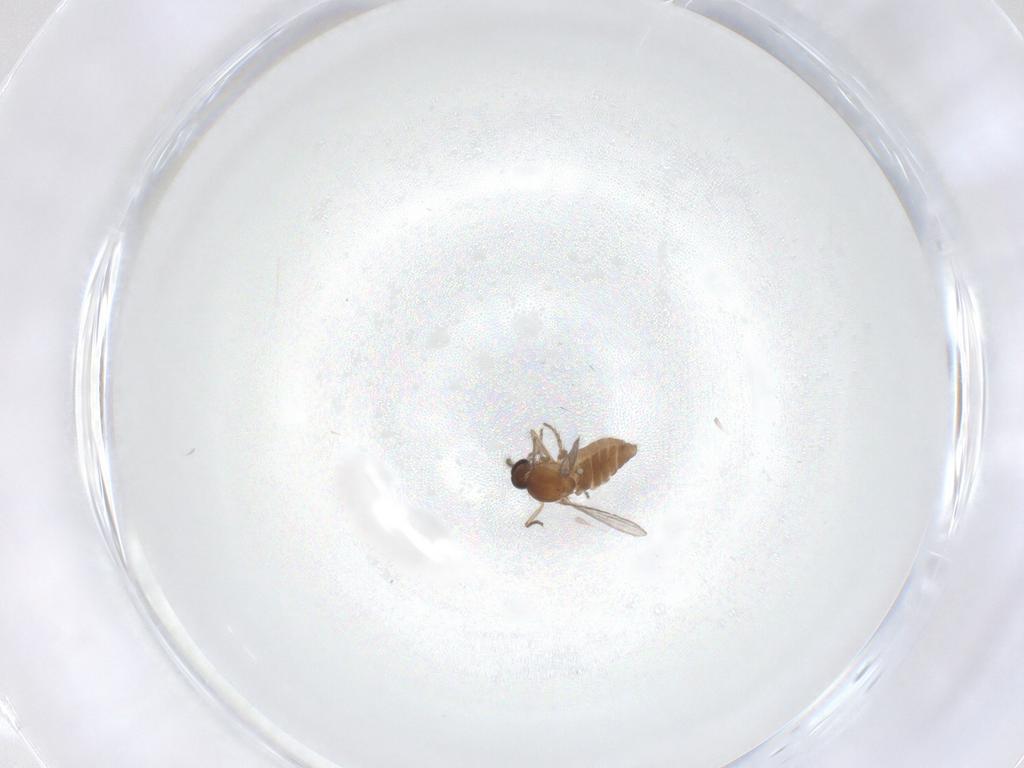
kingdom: Animalia
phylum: Arthropoda
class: Insecta
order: Diptera
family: Ceratopogonidae
